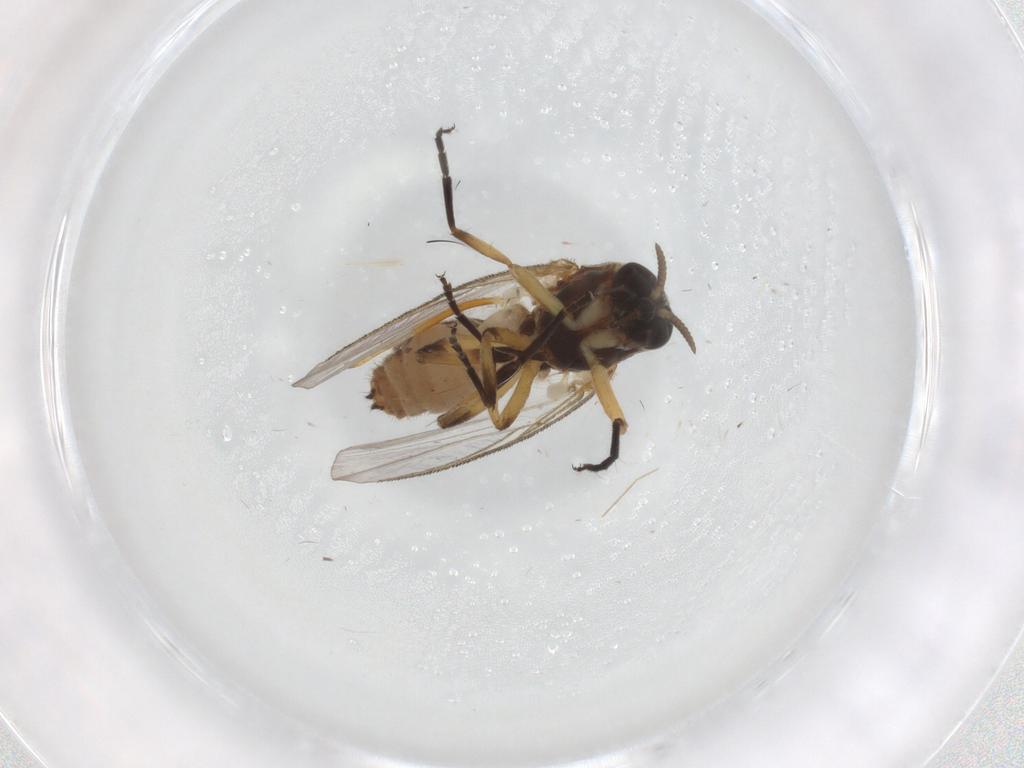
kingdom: Animalia
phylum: Arthropoda
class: Insecta
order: Diptera
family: Simuliidae
